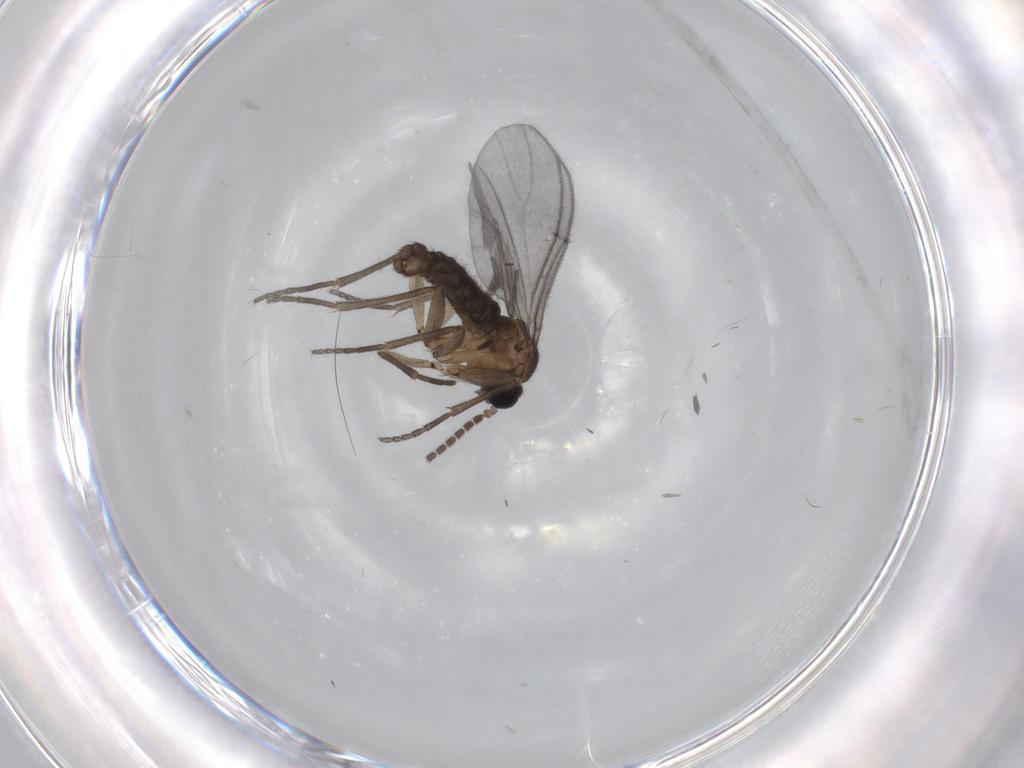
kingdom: Animalia
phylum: Arthropoda
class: Insecta
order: Diptera
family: Sciaridae
